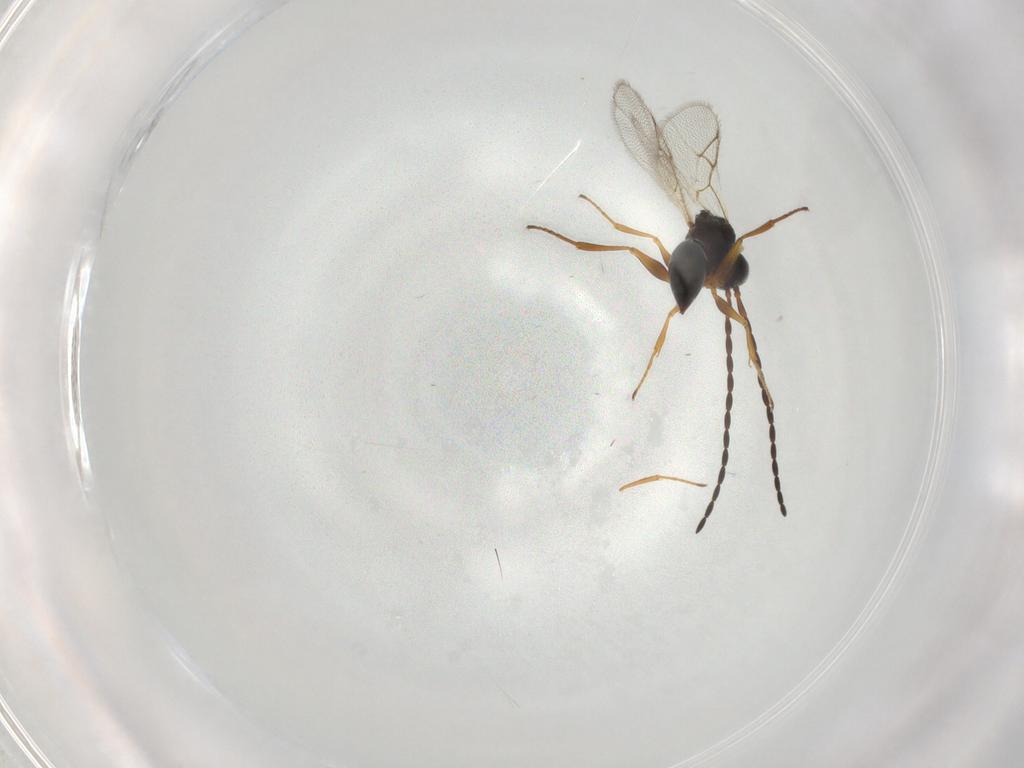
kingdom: Animalia
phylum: Arthropoda
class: Insecta
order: Hymenoptera
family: Figitidae
